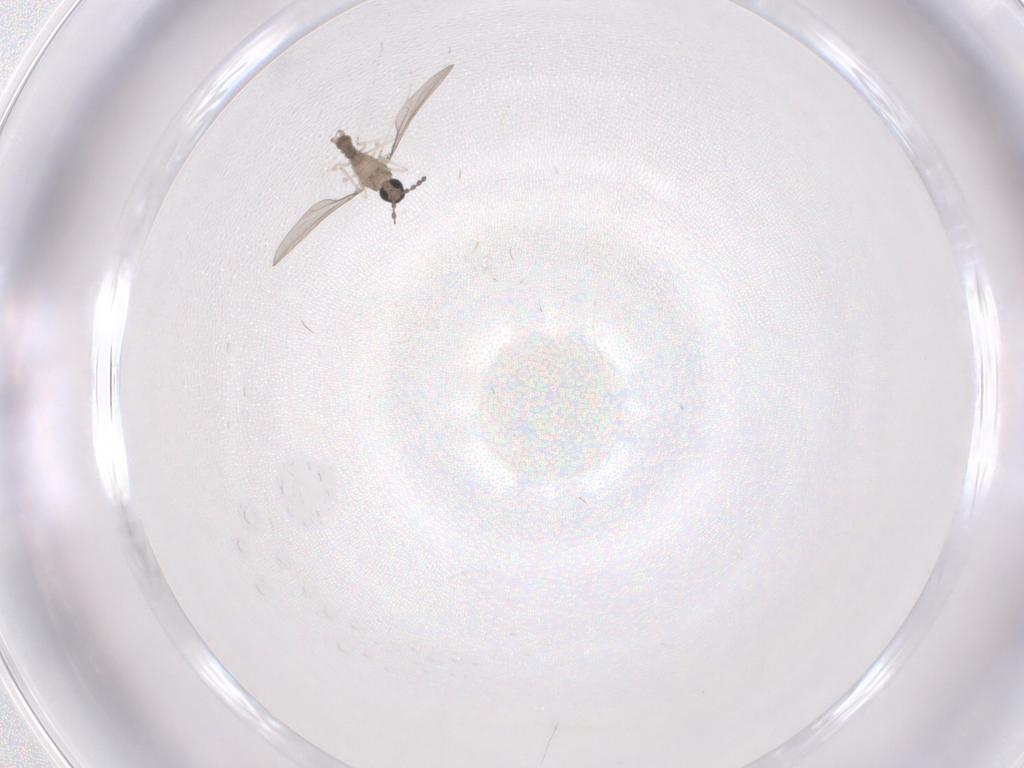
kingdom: Animalia
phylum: Arthropoda
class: Insecta
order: Diptera
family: Cecidomyiidae
